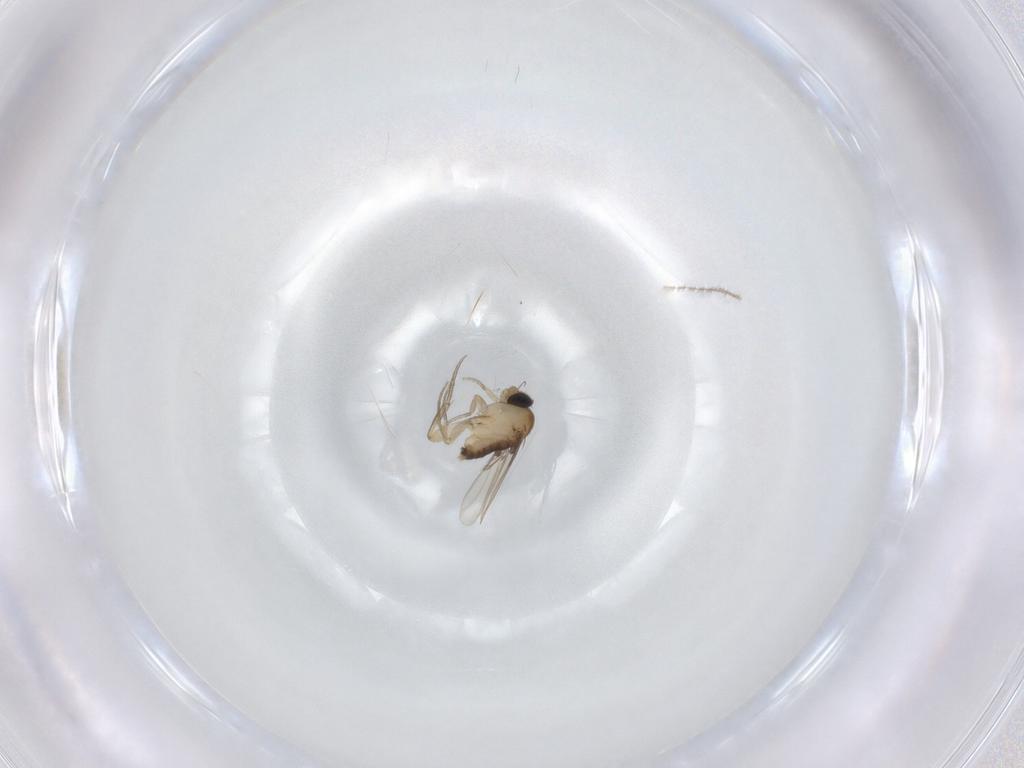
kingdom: Animalia
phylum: Arthropoda
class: Insecta
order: Diptera
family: Ceratopogonidae
